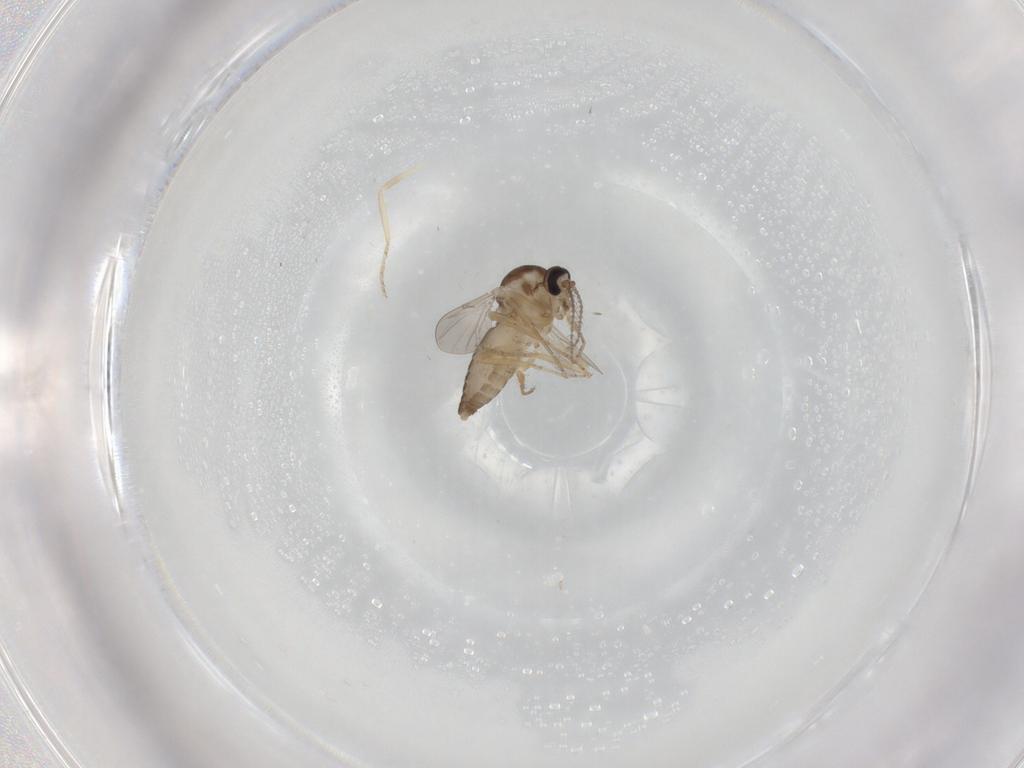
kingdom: Animalia
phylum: Arthropoda
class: Insecta
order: Diptera
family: Ceratopogonidae
